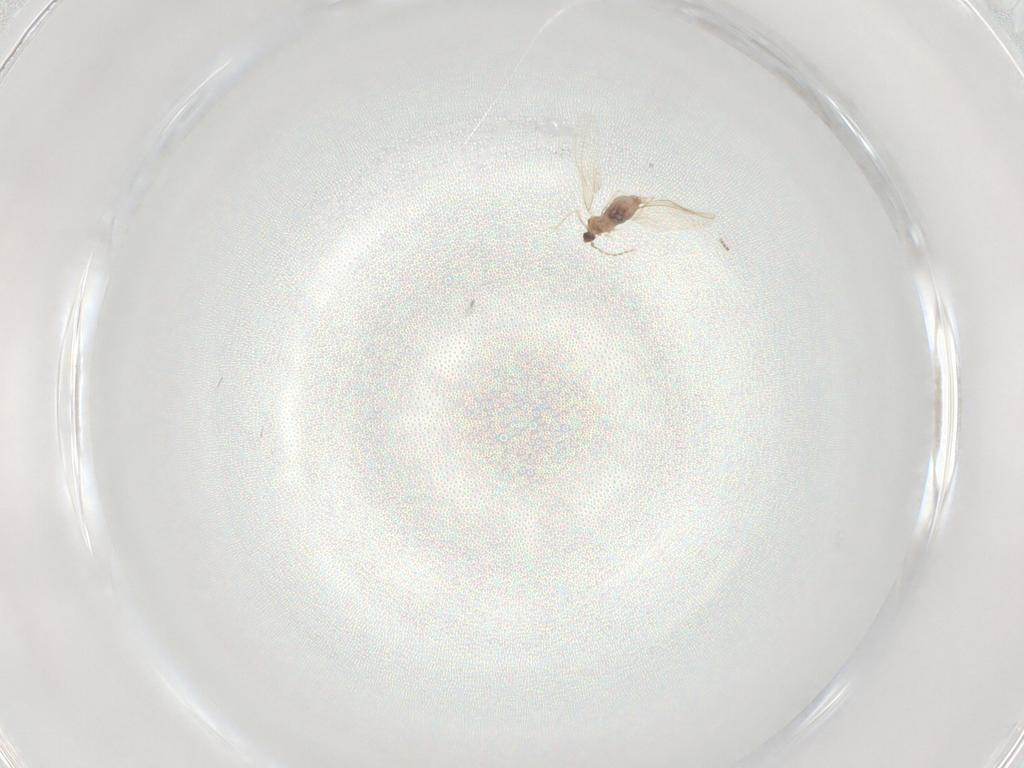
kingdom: Animalia
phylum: Arthropoda
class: Insecta
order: Diptera
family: Cecidomyiidae
